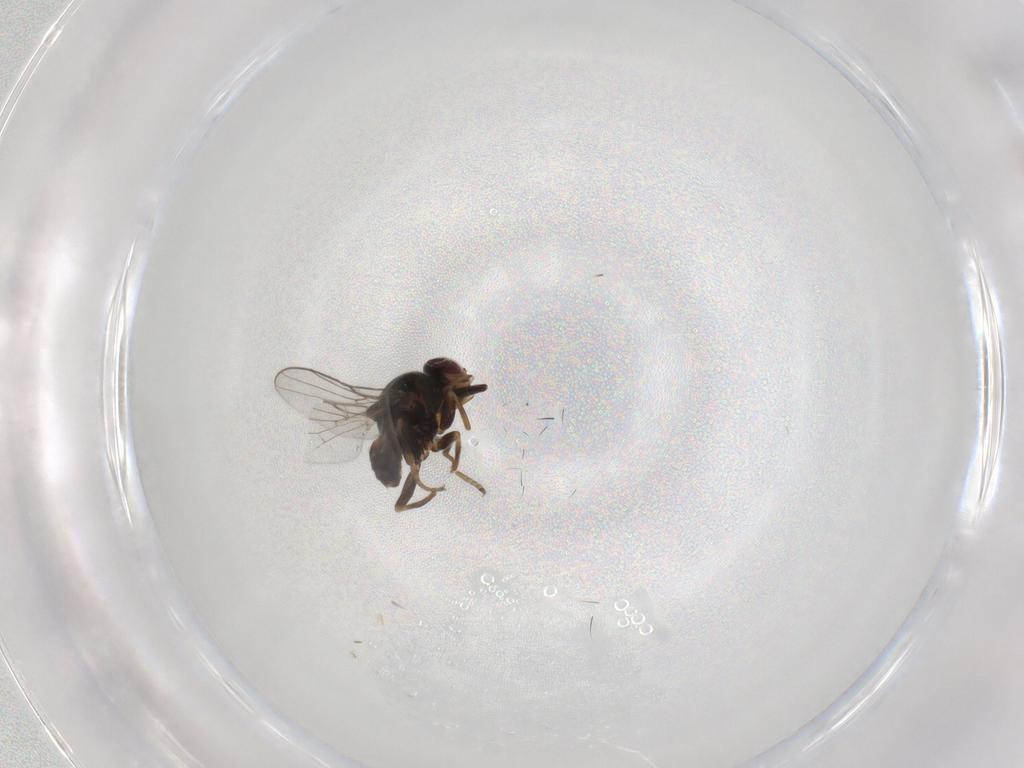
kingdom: Animalia
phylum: Arthropoda
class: Insecta
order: Diptera
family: Chloropidae
